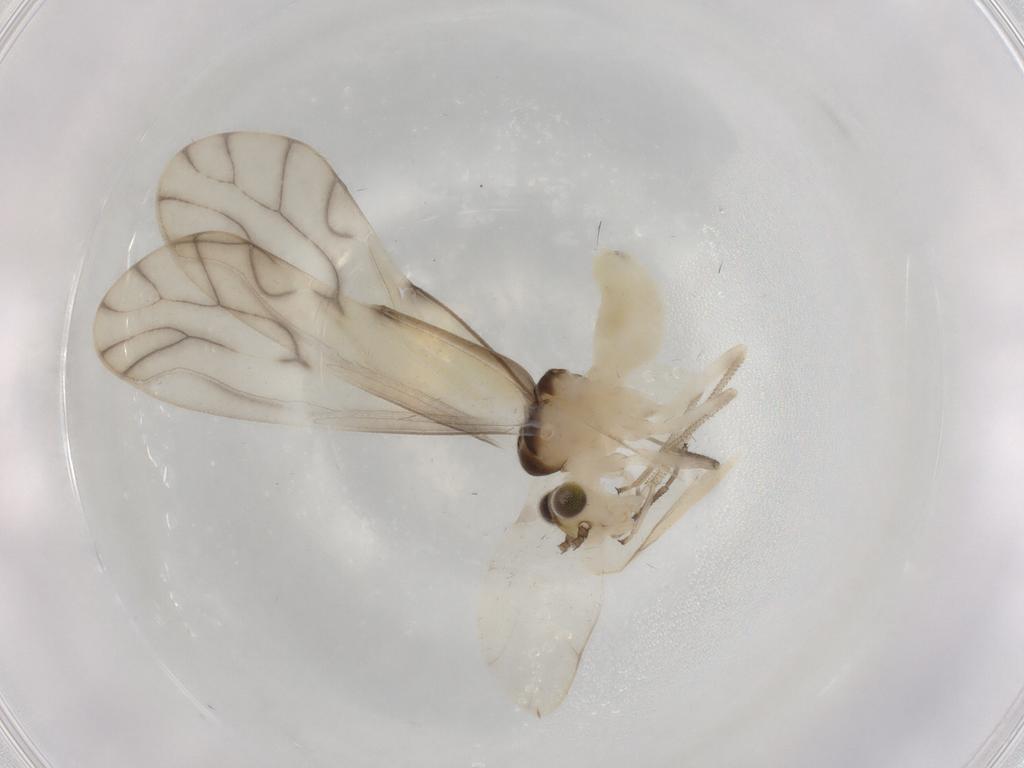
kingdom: Animalia
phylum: Arthropoda
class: Insecta
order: Psocodea
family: Caeciliusidae
